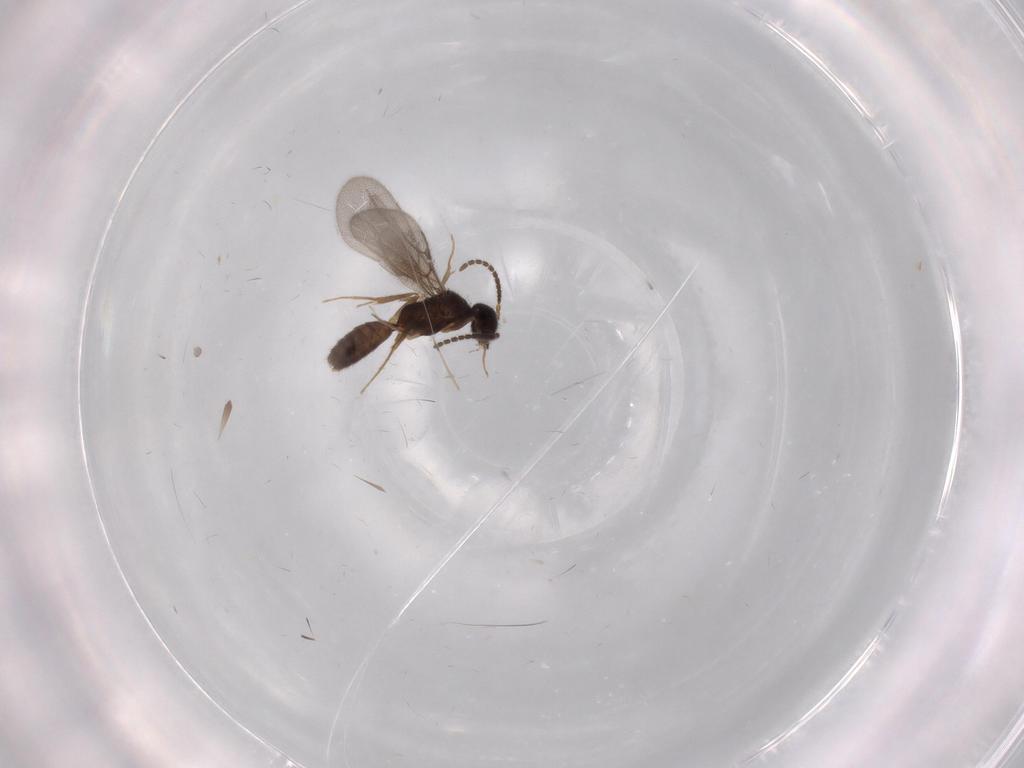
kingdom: Animalia
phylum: Arthropoda
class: Insecta
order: Hymenoptera
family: Bethylidae
